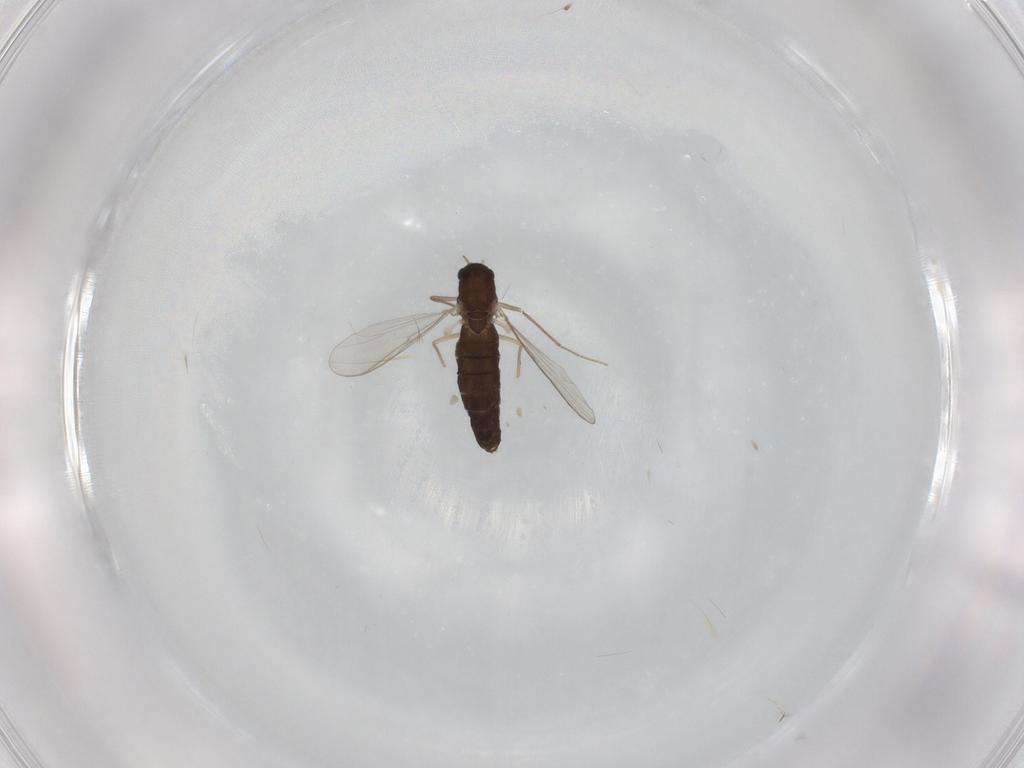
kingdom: Animalia
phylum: Arthropoda
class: Insecta
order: Diptera
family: Chironomidae
